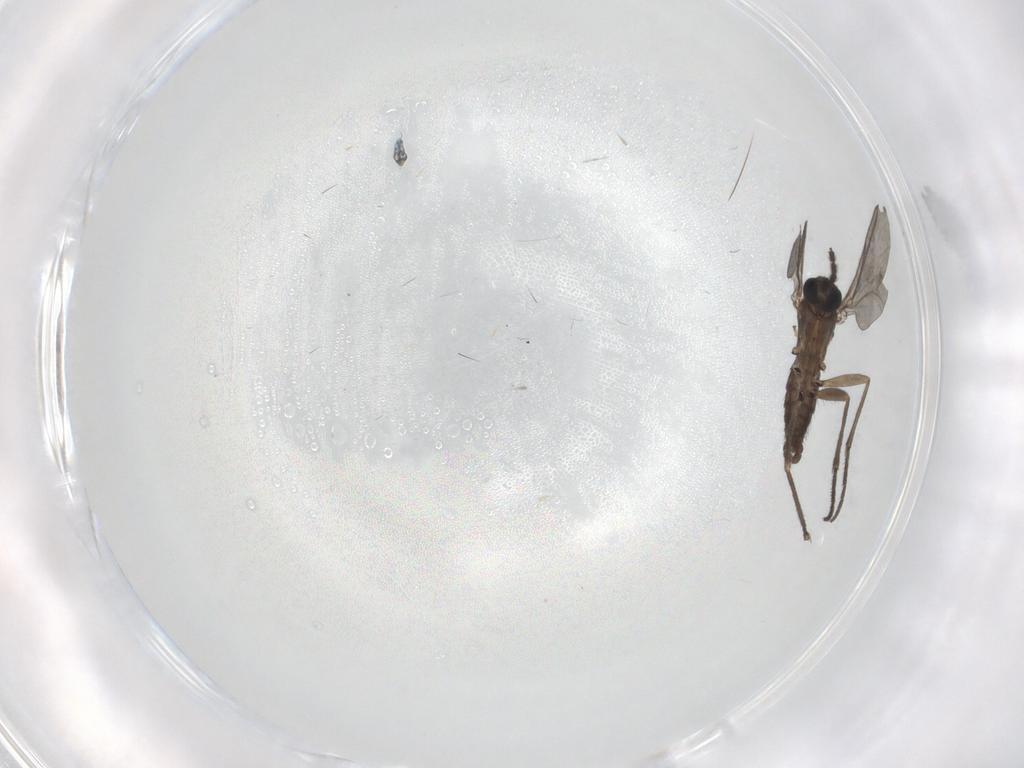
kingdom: Animalia
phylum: Arthropoda
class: Insecta
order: Diptera
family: Sciaridae
